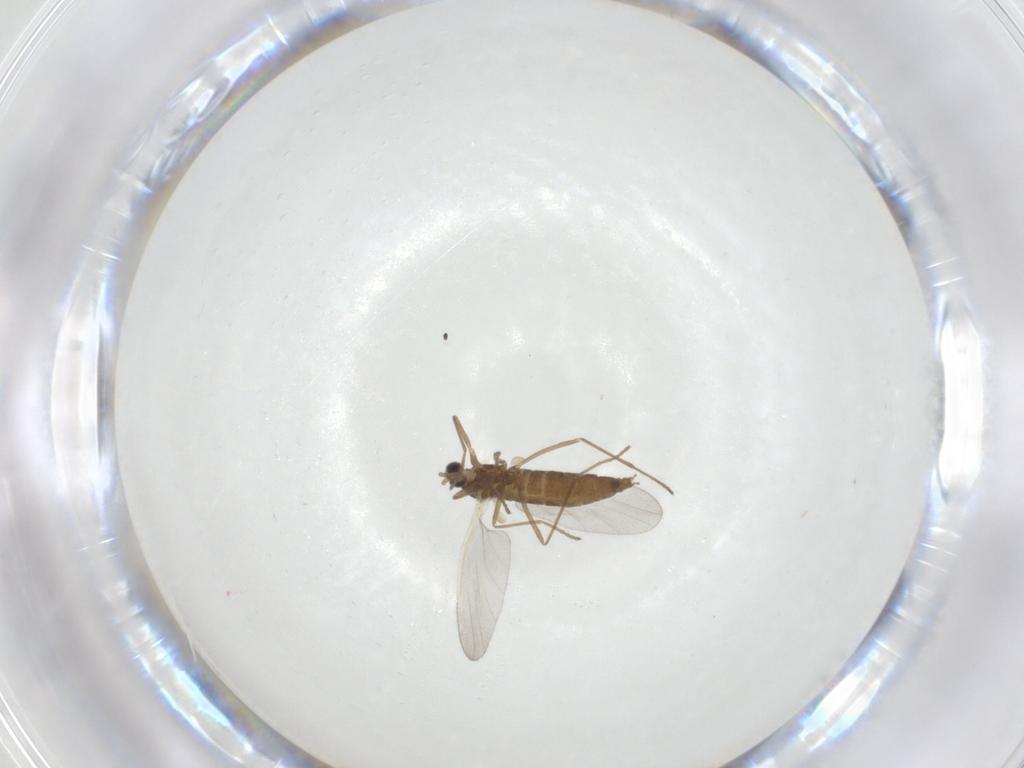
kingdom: Animalia
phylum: Arthropoda
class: Insecta
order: Diptera
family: Cecidomyiidae
